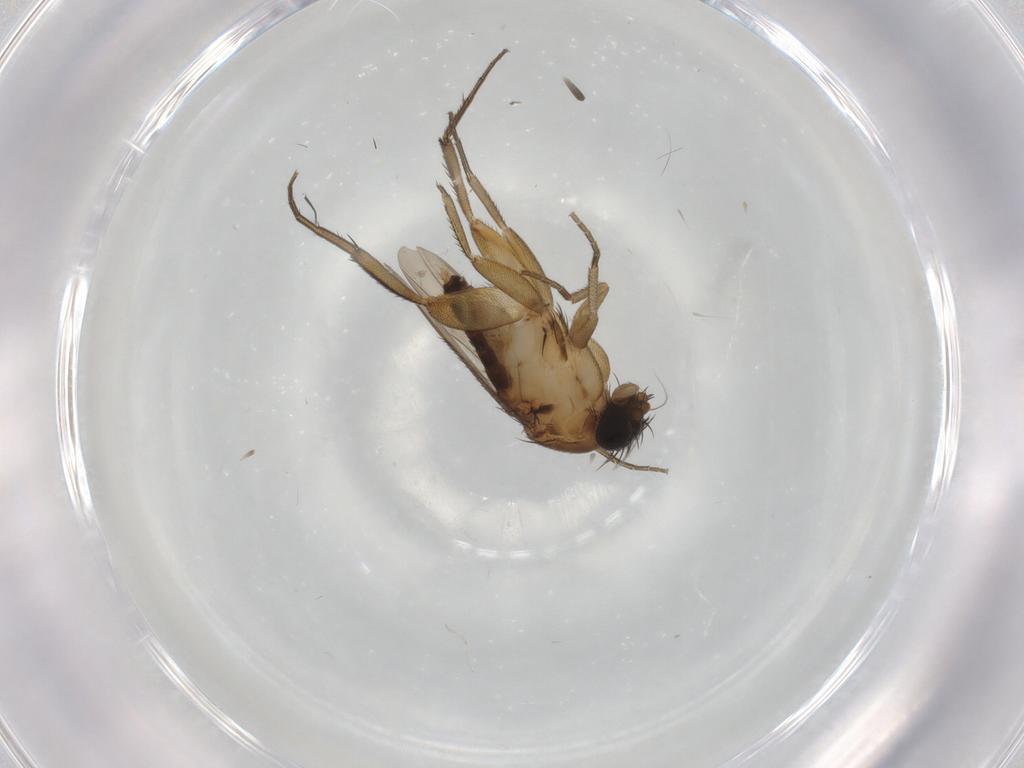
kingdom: Animalia
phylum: Arthropoda
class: Insecta
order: Diptera
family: Phoridae
